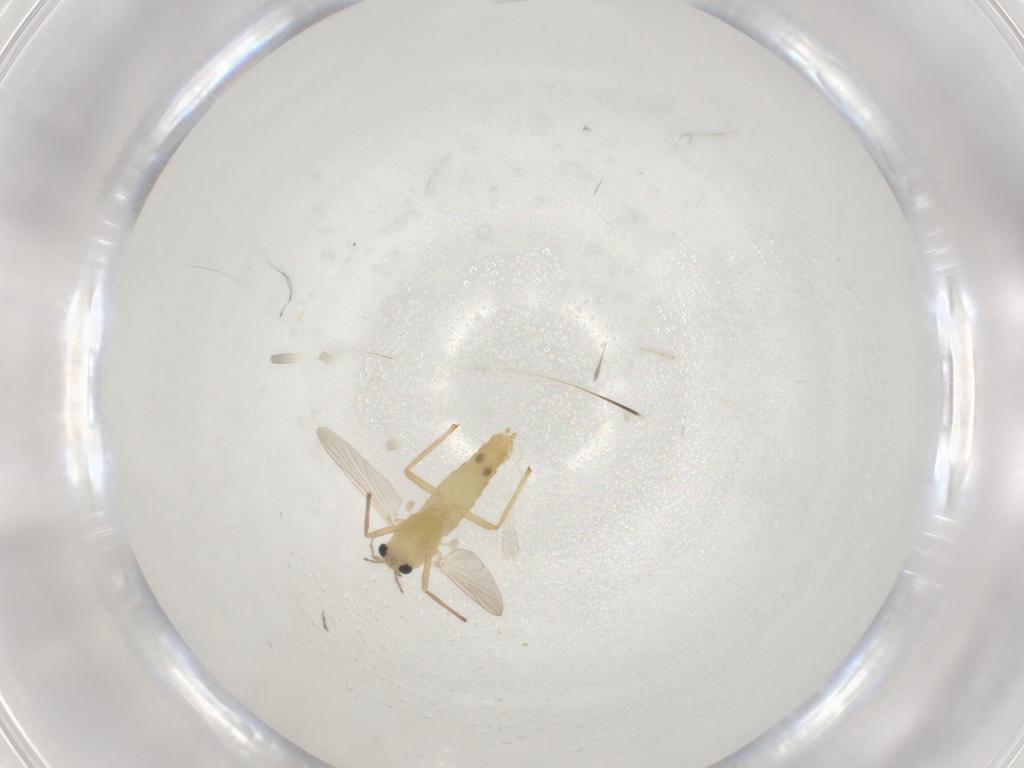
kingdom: Animalia
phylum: Arthropoda
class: Insecta
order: Diptera
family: Chironomidae
